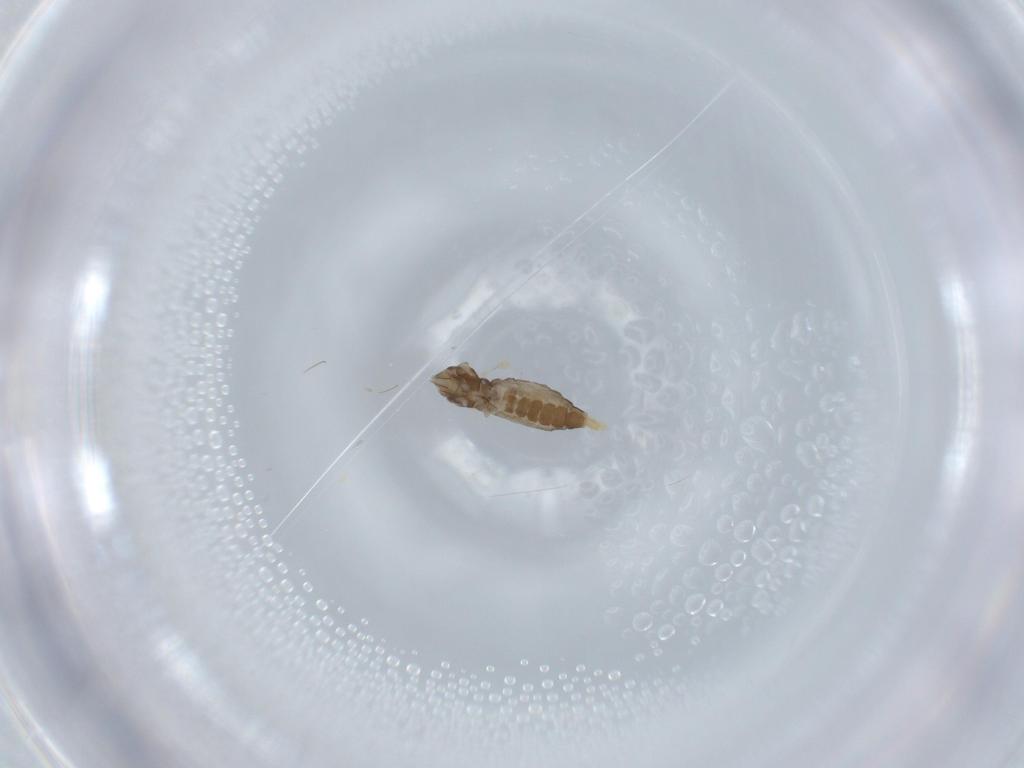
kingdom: Animalia
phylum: Arthropoda
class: Insecta
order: Diptera
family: Cecidomyiidae
